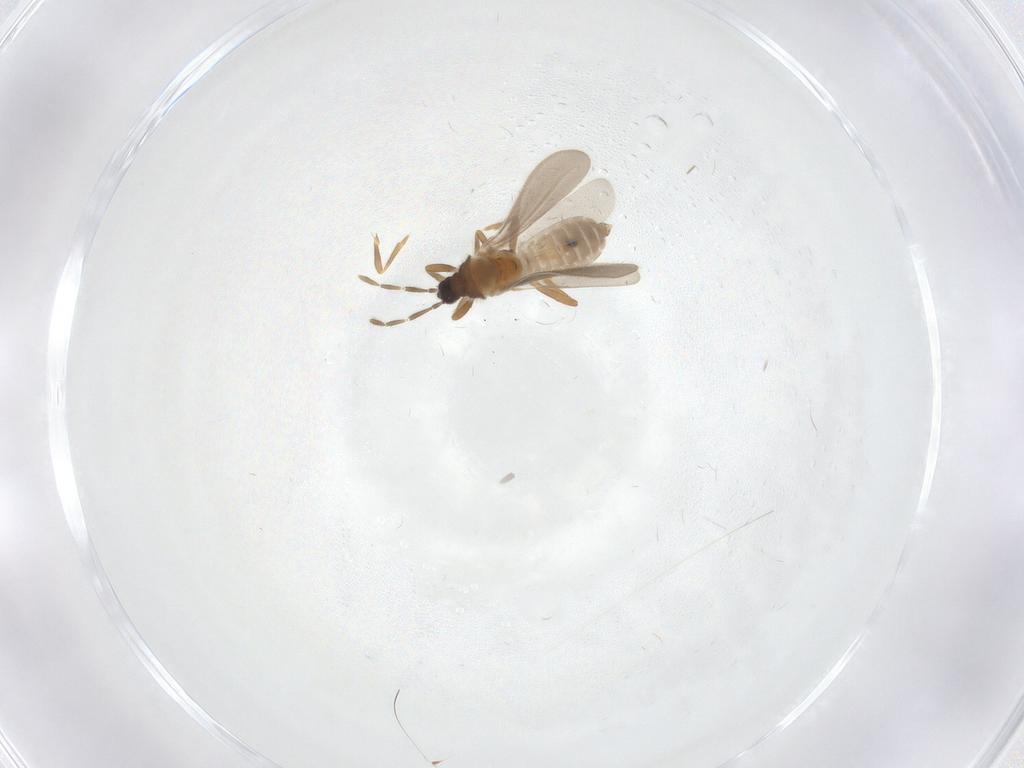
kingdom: Animalia
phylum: Arthropoda
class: Insecta
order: Hemiptera
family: Enicocephalidae
